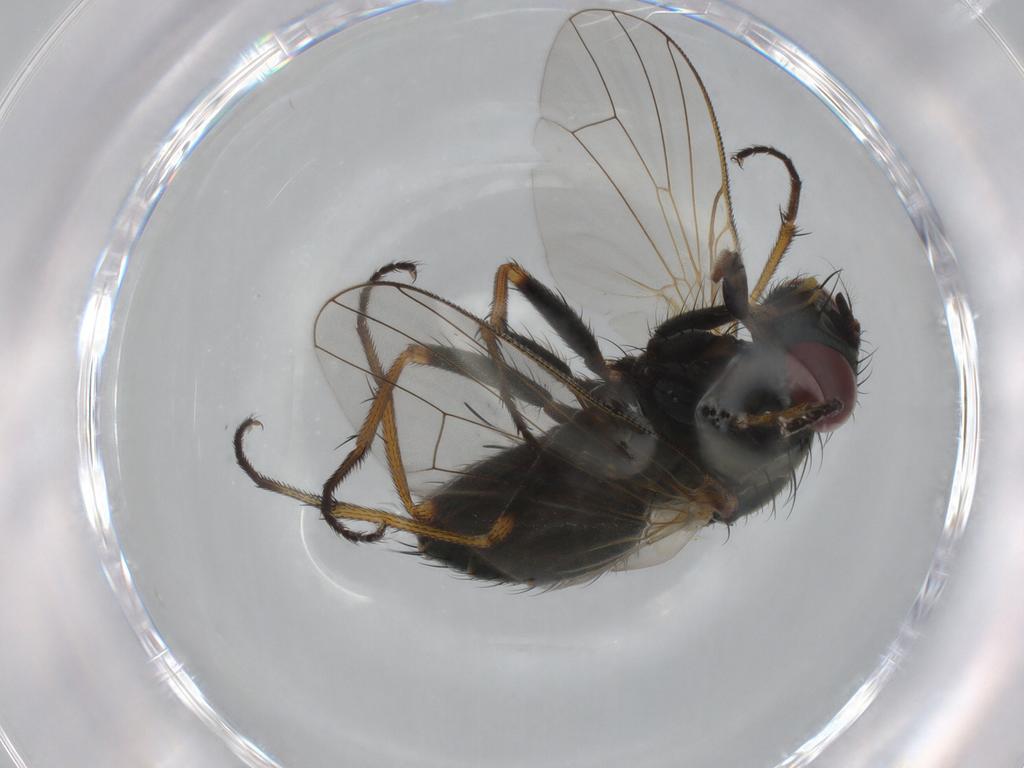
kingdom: Animalia
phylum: Arthropoda
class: Insecta
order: Diptera
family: Muscidae
